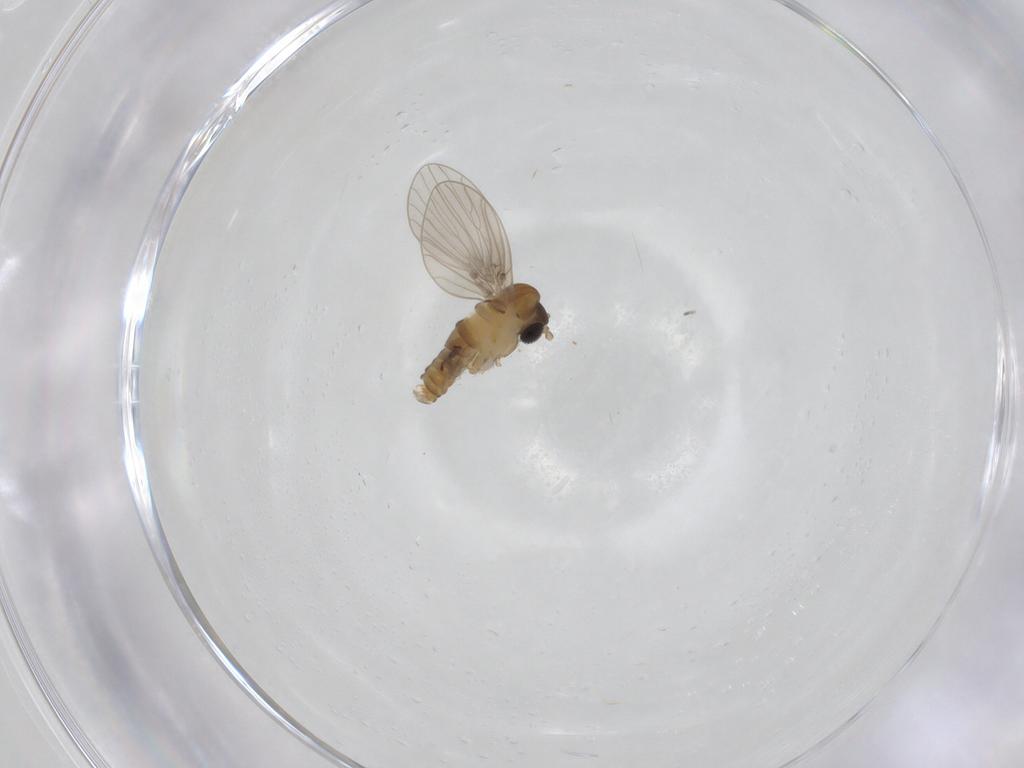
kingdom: Animalia
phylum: Arthropoda
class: Insecta
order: Diptera
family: Psychodidae
